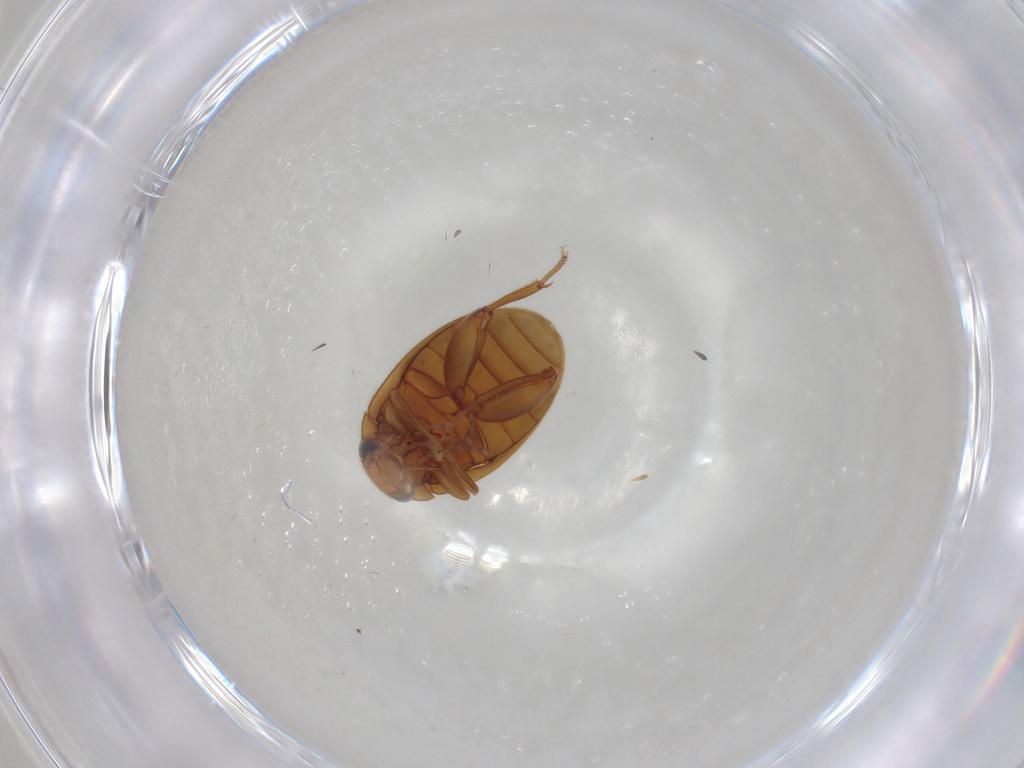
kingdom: Animalia
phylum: Arthropoda
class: Insecta
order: Coleoptera
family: Scirtidae
